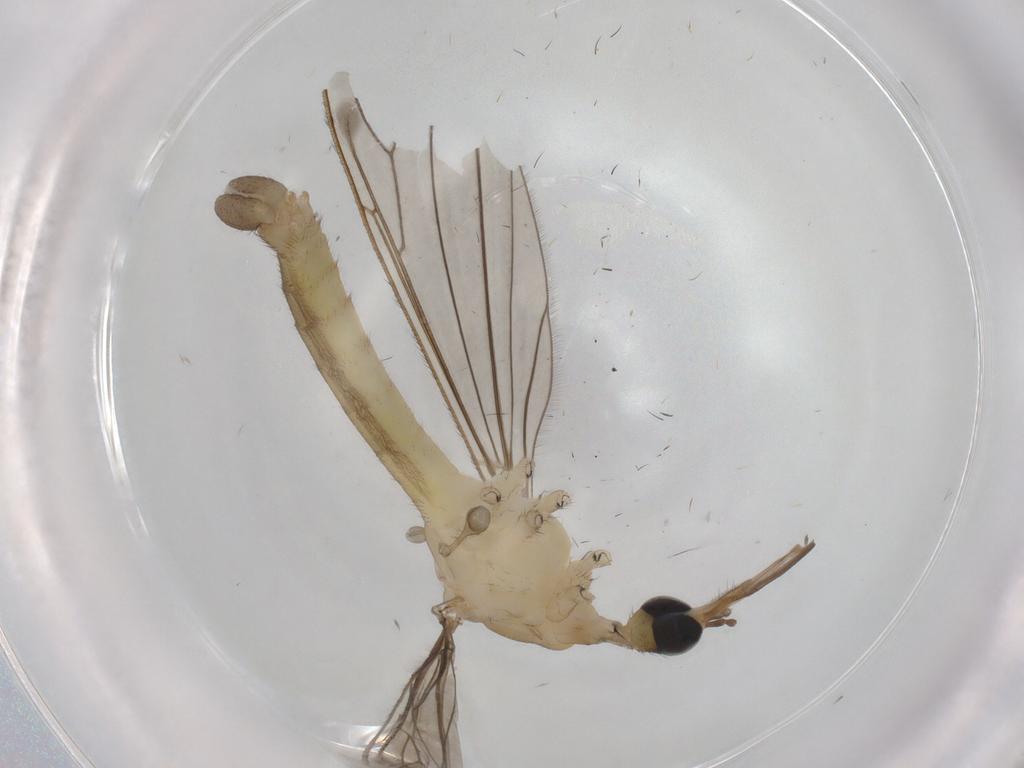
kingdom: Animalia
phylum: Arthropoda
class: Insecta
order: Diptera
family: Limoniidae
